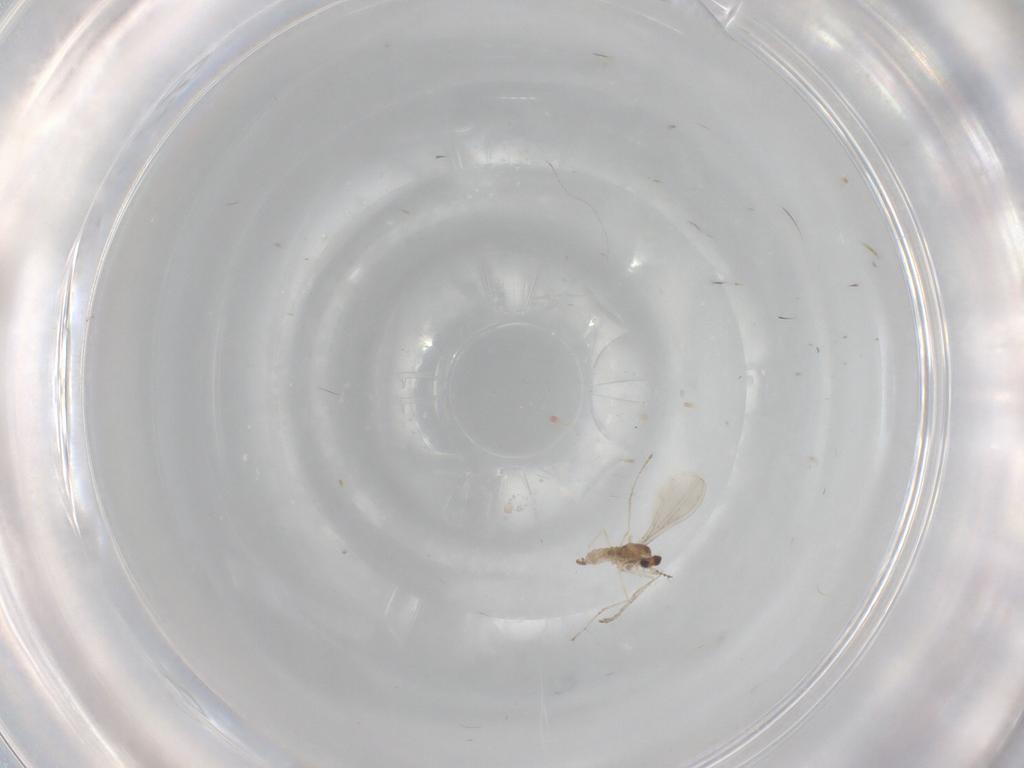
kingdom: Animalia
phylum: Arthropoda
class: Insecta
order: Diptera
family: Cecidomyiidae
